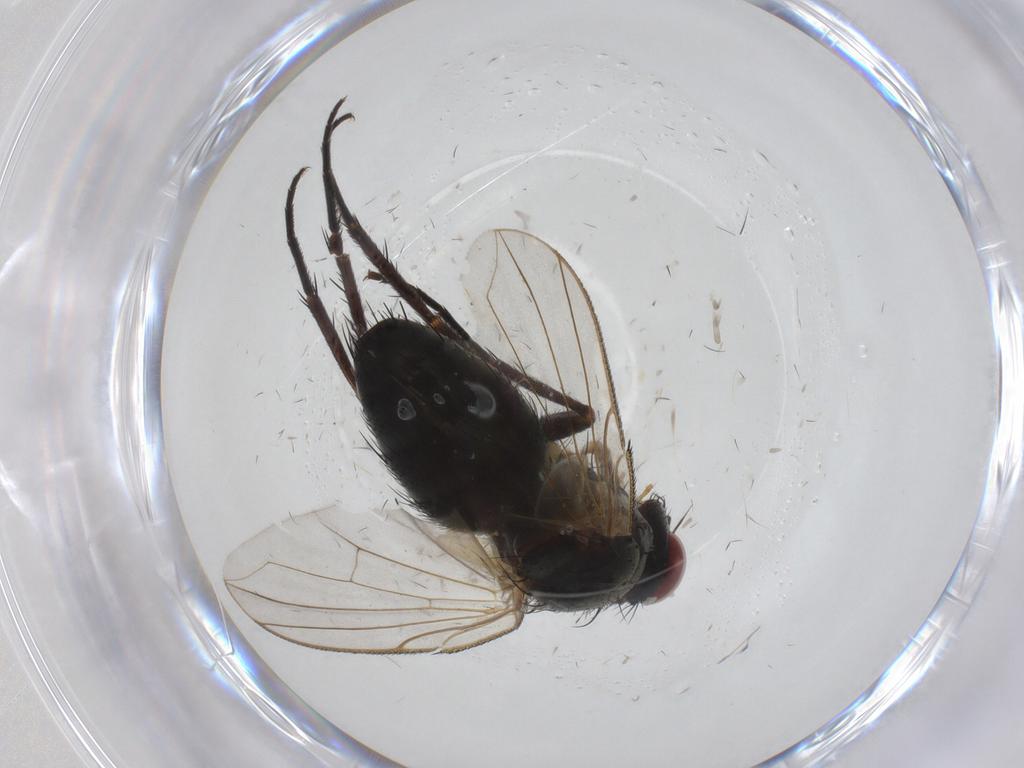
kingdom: Animalia
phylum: Arthropoda
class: Insecta
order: Diptera
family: Tachinidae
